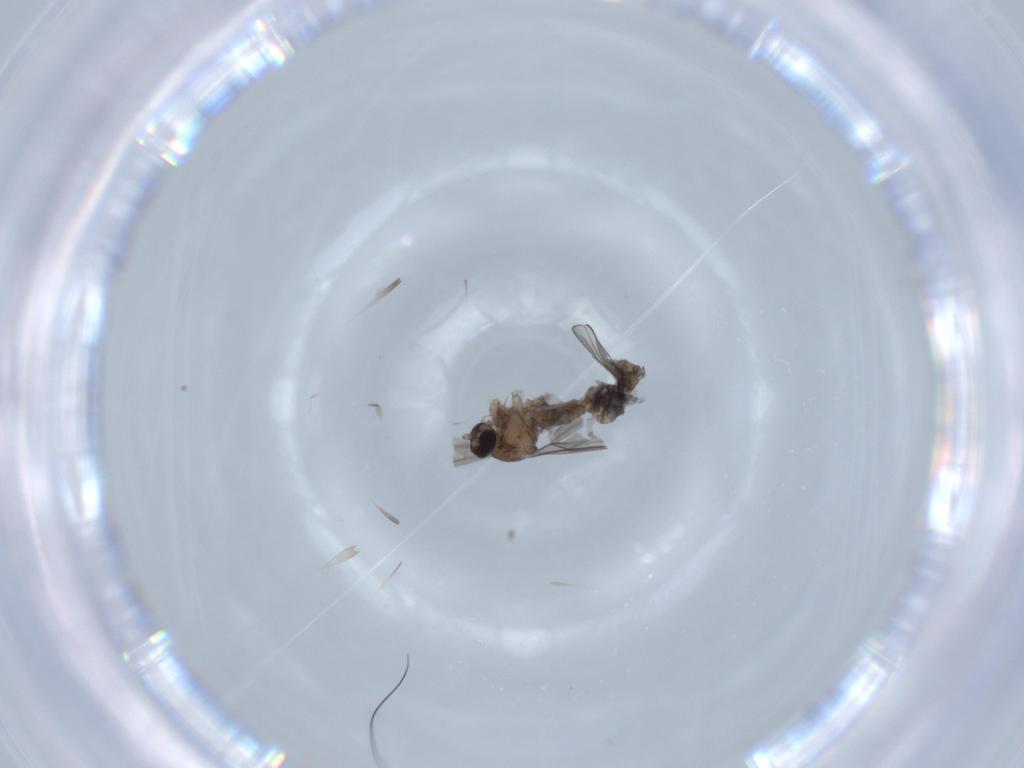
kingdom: Animalia
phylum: Arthropoda
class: Insecta
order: Diptera
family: Cecidomyiidae
